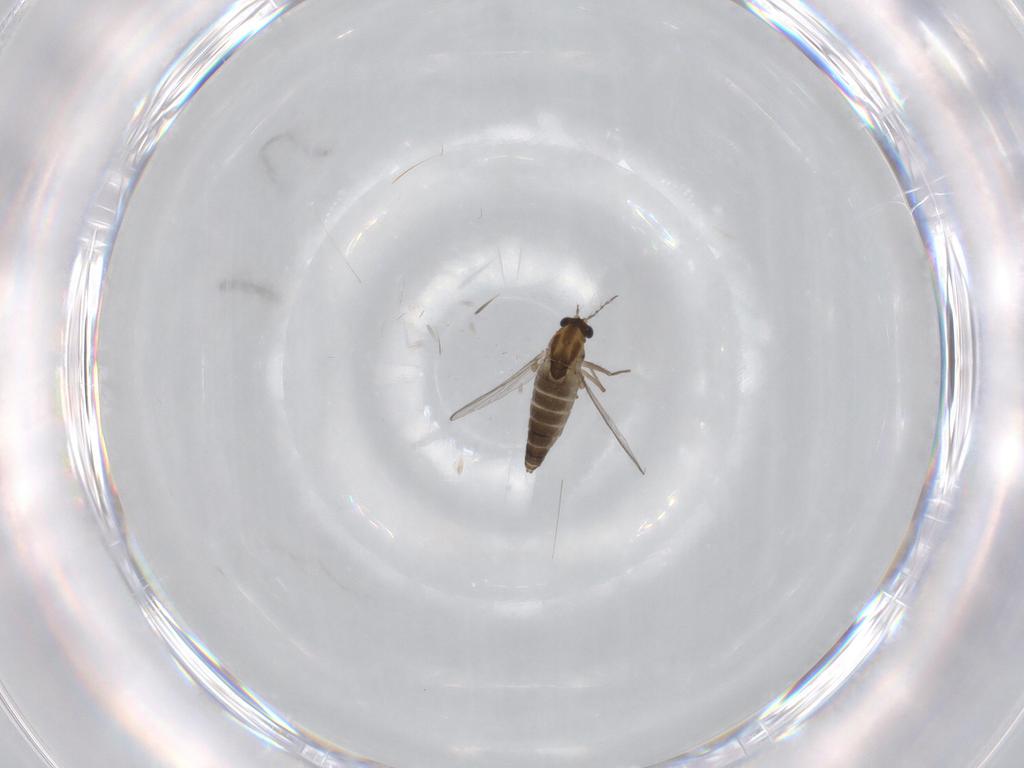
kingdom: Animalia
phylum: Arthropoda
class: Insecta
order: Diptera
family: Chironomidae
